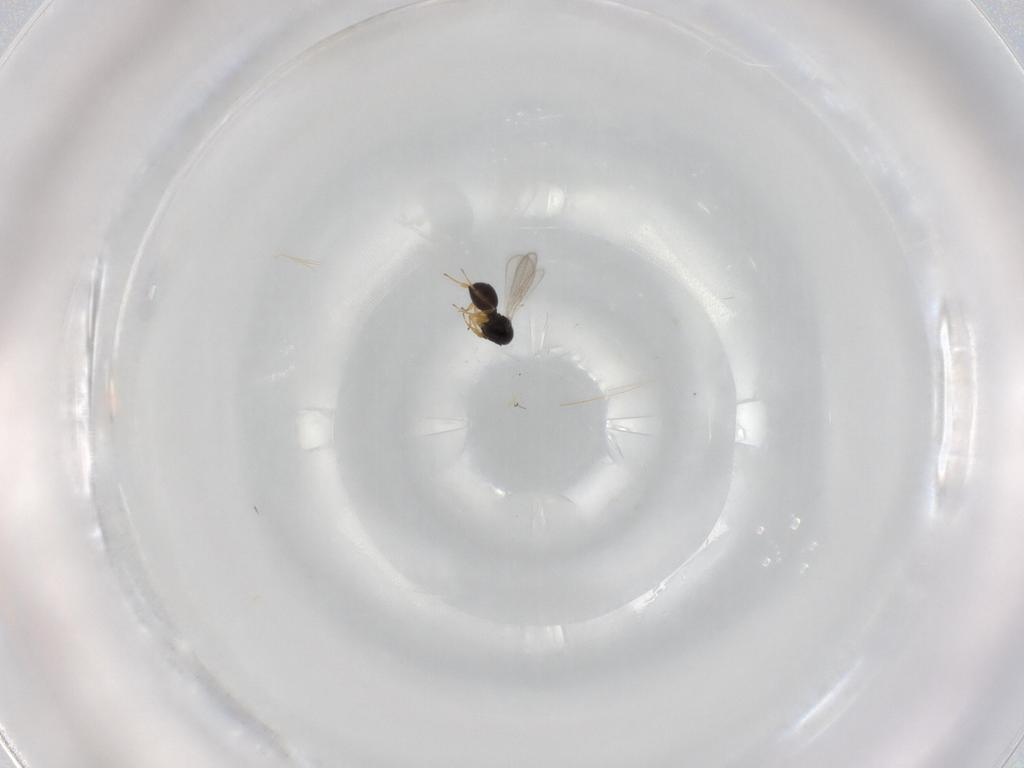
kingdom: Animalia
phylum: Arthropoda
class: Insecta
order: Hymenoptera
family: Scelionidae
